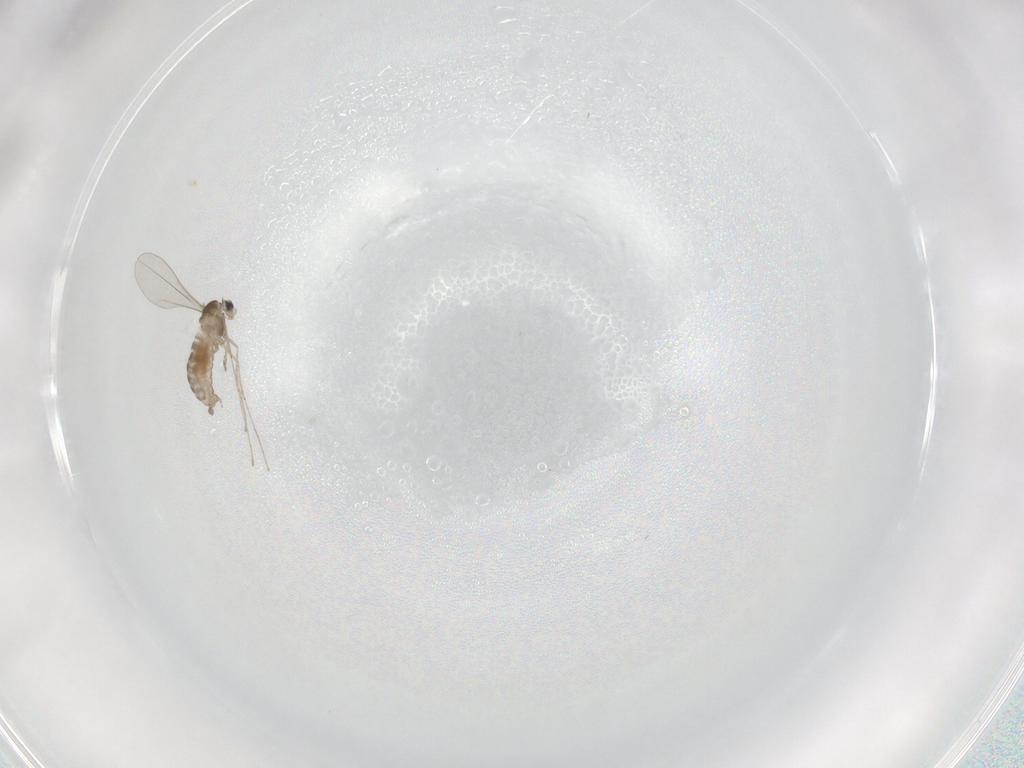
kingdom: Animalia
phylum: Arthropoda
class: Insecta
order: Diptera
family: Cecidomyiidae
